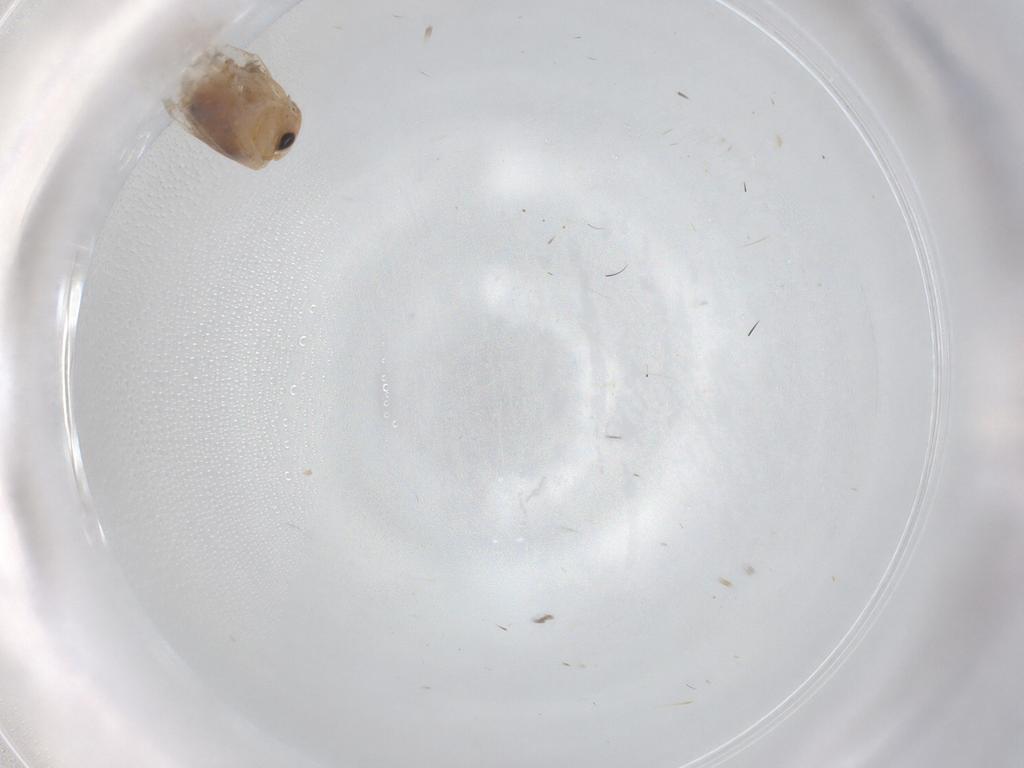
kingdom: Animalia
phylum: Arthropoda
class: Insecta
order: Lepidoptera
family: Bucculatricidae
